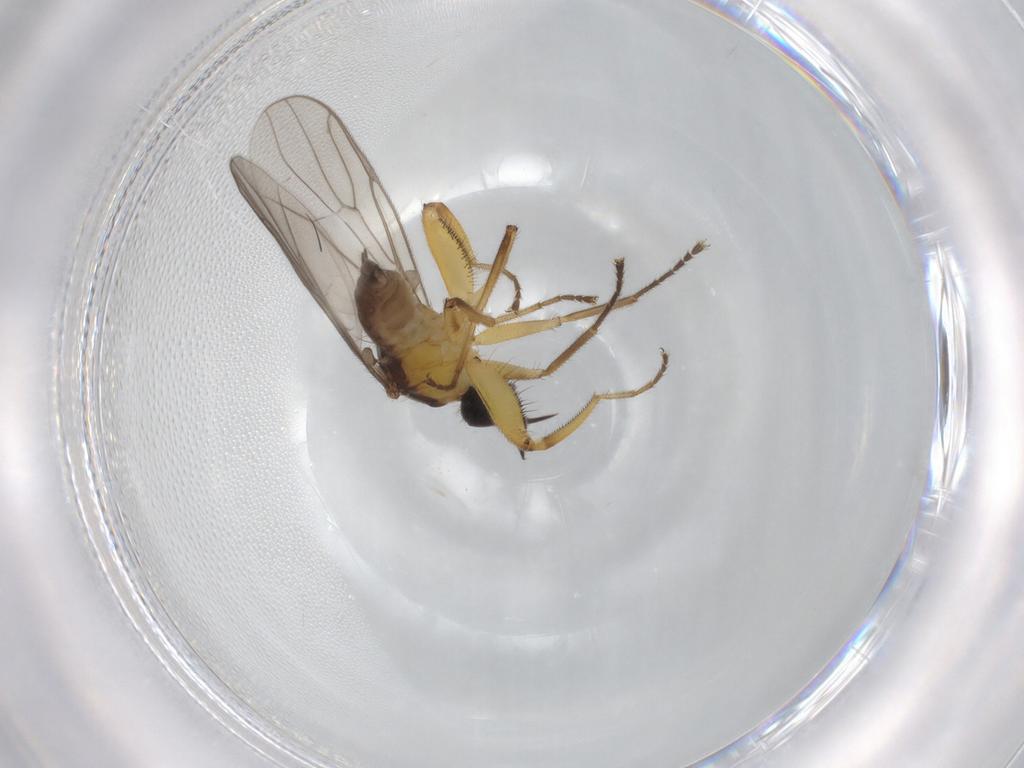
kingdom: Animalia
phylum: Arthropoda
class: Insecta
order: Diptera
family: Hybotidae
